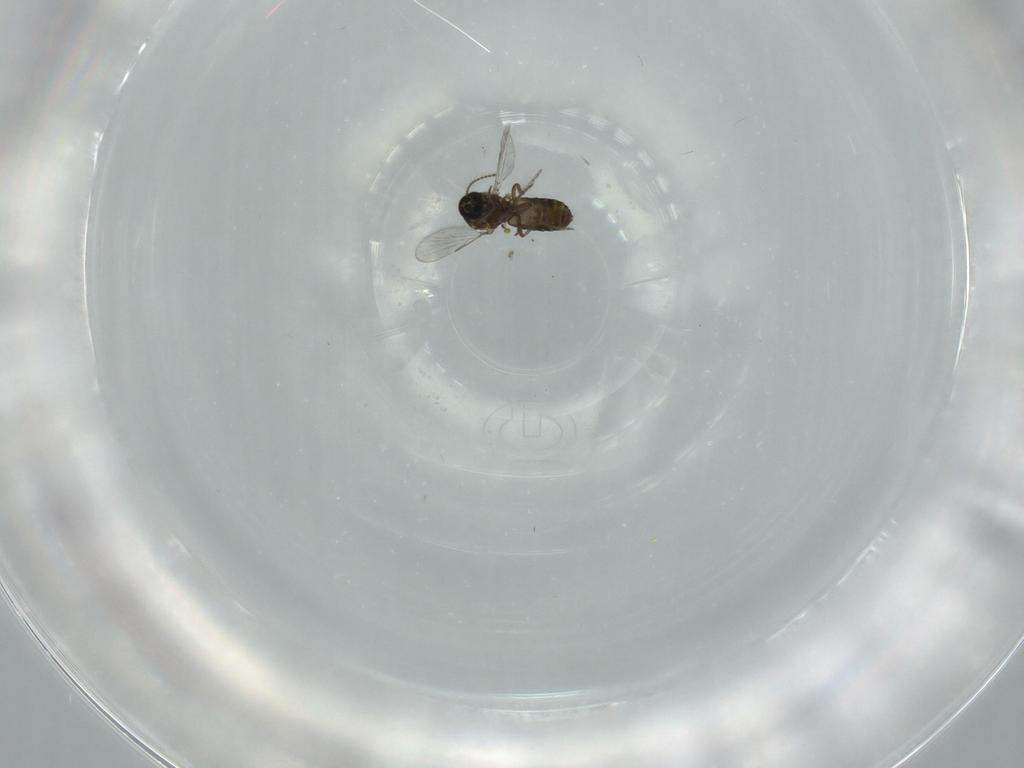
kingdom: Animalia
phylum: Arthropoda
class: Insecta
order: Diptera
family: Ceratopogonidae
